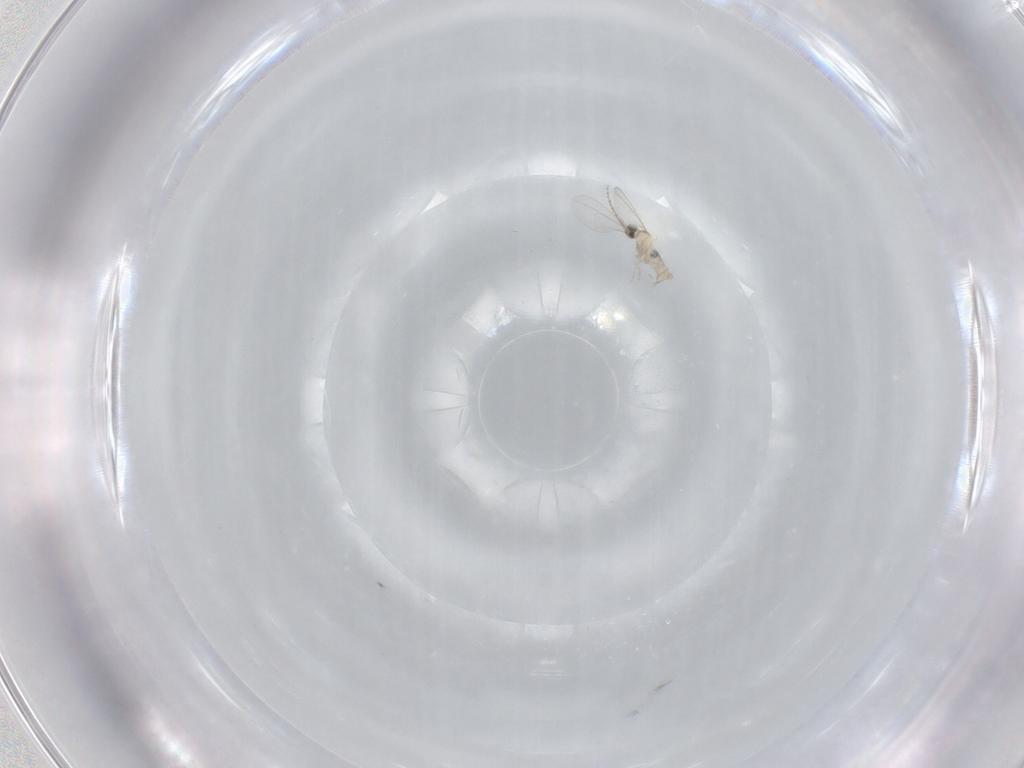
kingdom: Animalia
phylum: Arthropoda
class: Insecta
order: Diptera
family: Cecidomyiidae
